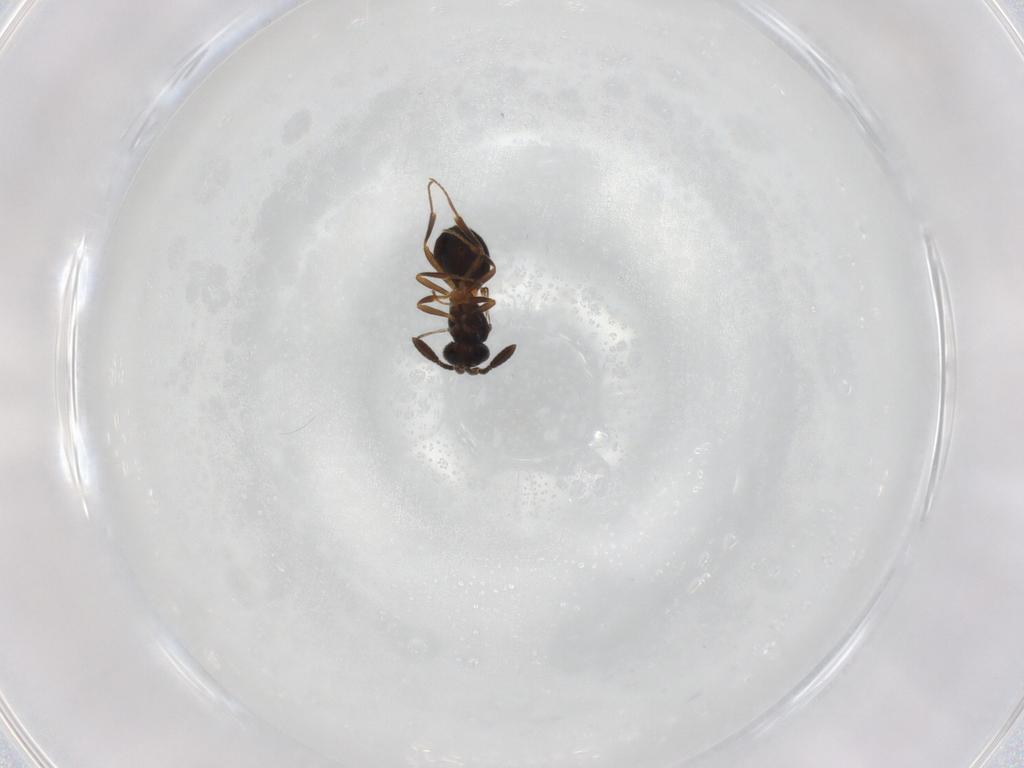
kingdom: Animalia
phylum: Arthropoda
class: Insecta
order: Hymenoptera
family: Scelionidae
